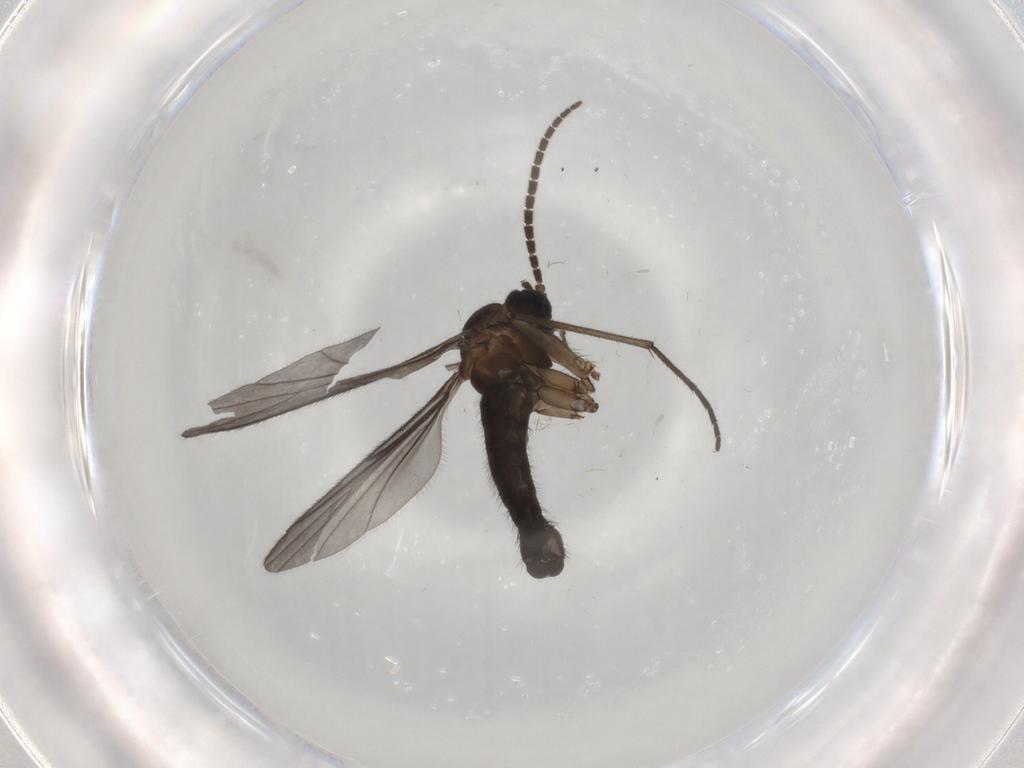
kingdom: Animalia
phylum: Arthropoda
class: Insecta
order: Diptera
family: Sciaridae
